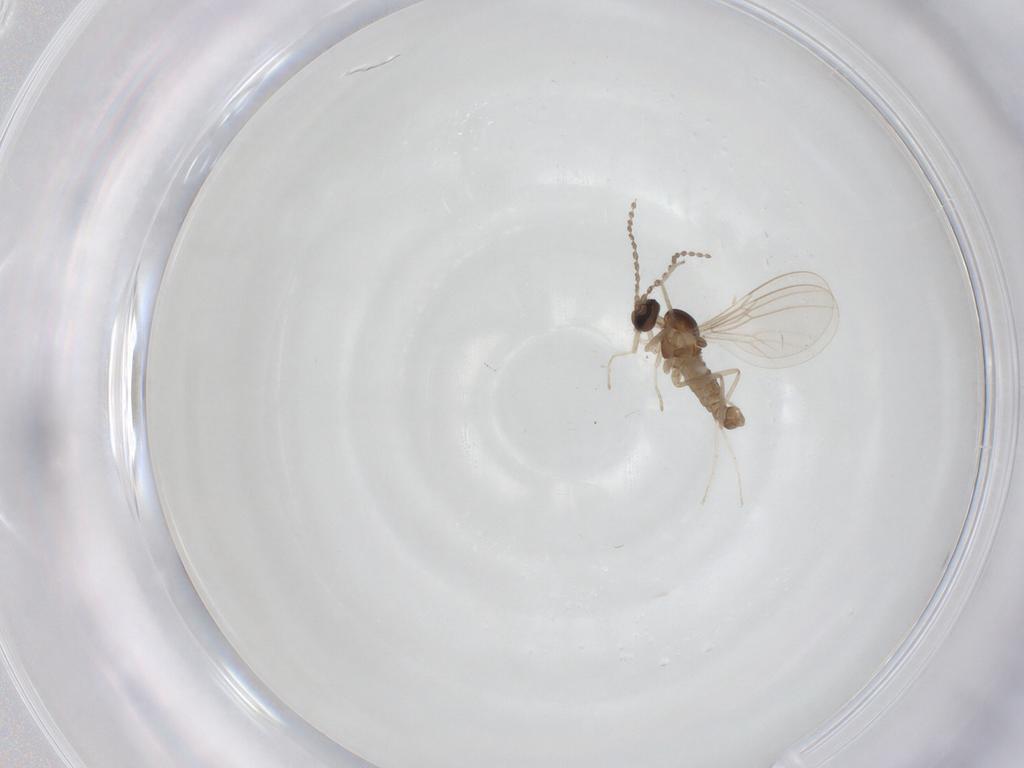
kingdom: Animalia
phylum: Arthropoda
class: Insecta
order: Diptera
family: Cecidomyiidae
